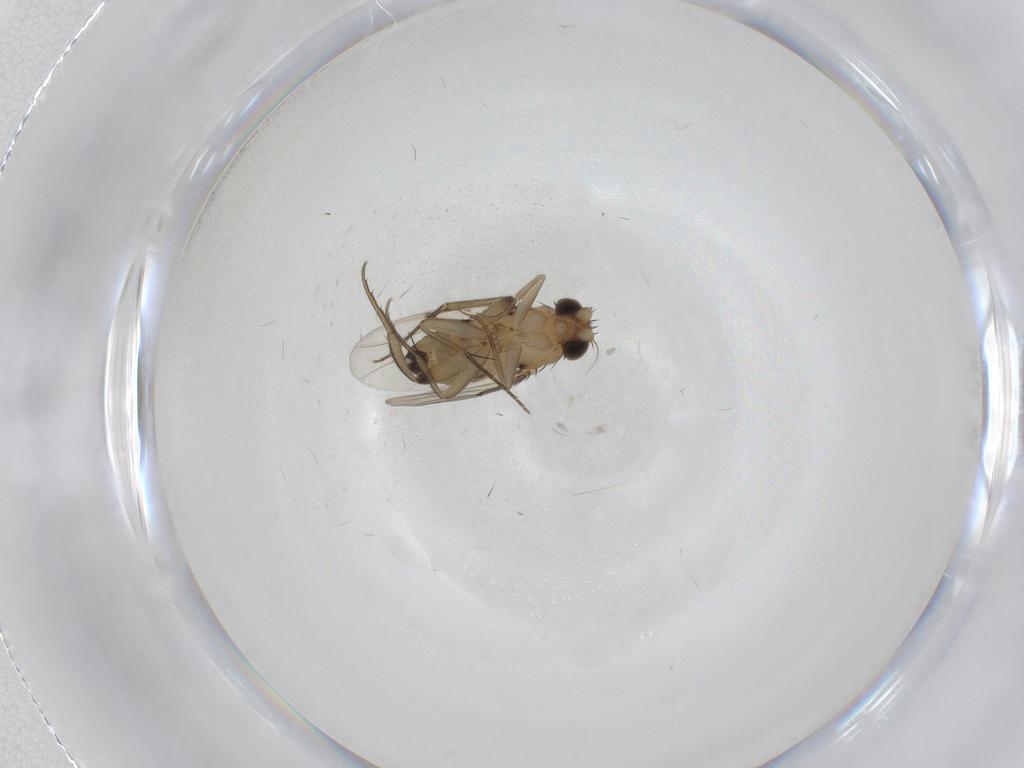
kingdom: Animalia
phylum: Arthropoda
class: Insecta
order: Diptera
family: Phoridae
